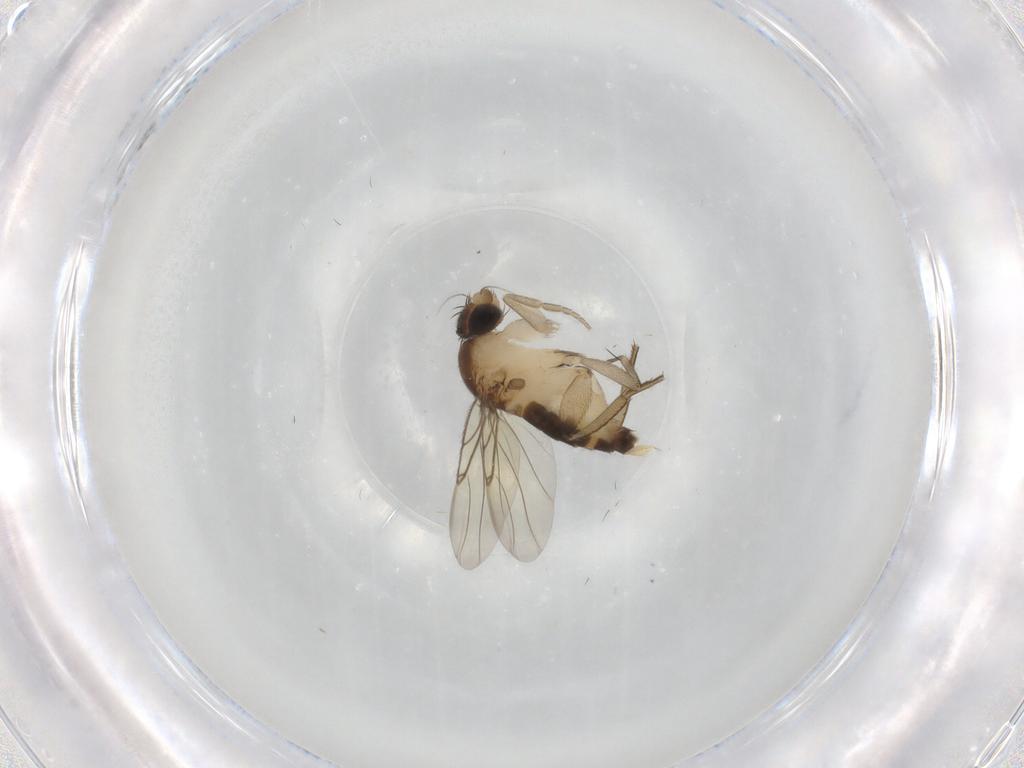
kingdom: Animalia
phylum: Arthropoda
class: Insecta
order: Diptera
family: Phoridae
